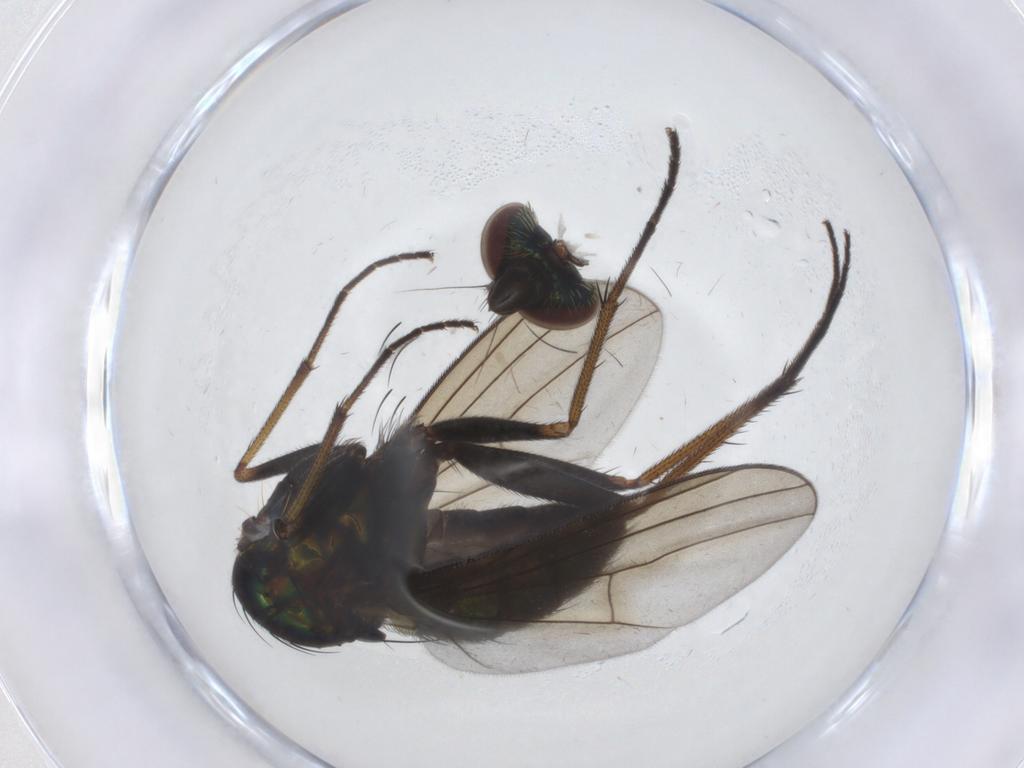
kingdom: Animalia
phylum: Arthropoda
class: Insecta
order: Diptera
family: Dolichopodidae
